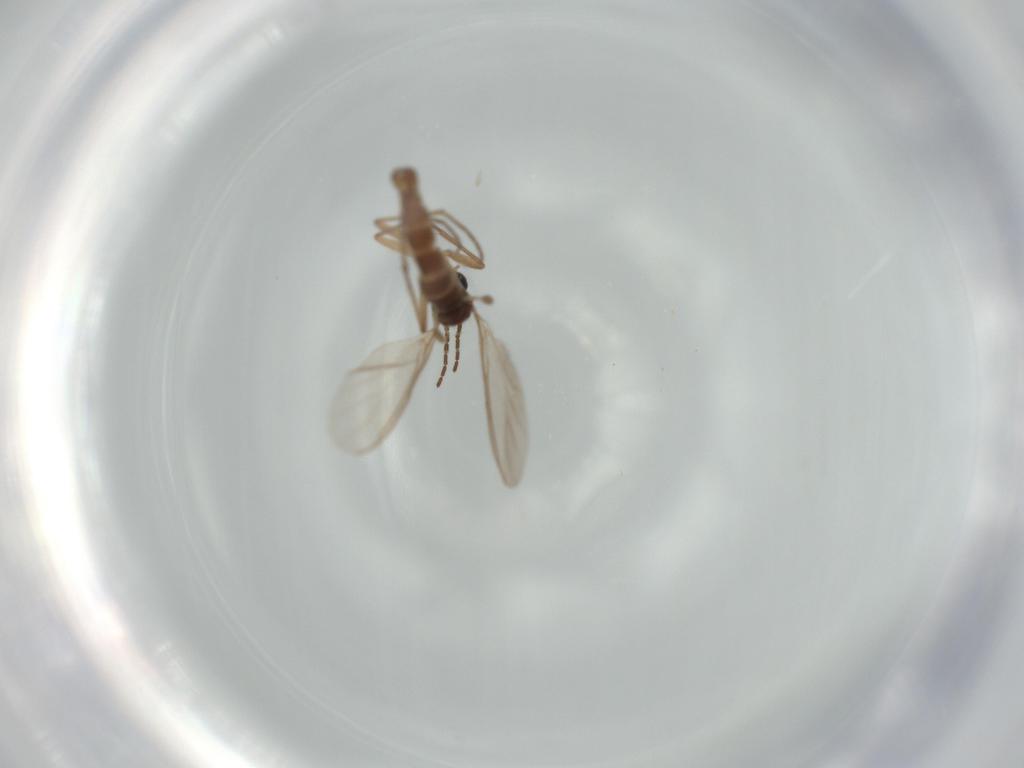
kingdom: Animalia
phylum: Arthropoda
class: Insecta
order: Diptera
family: Sciaridae
